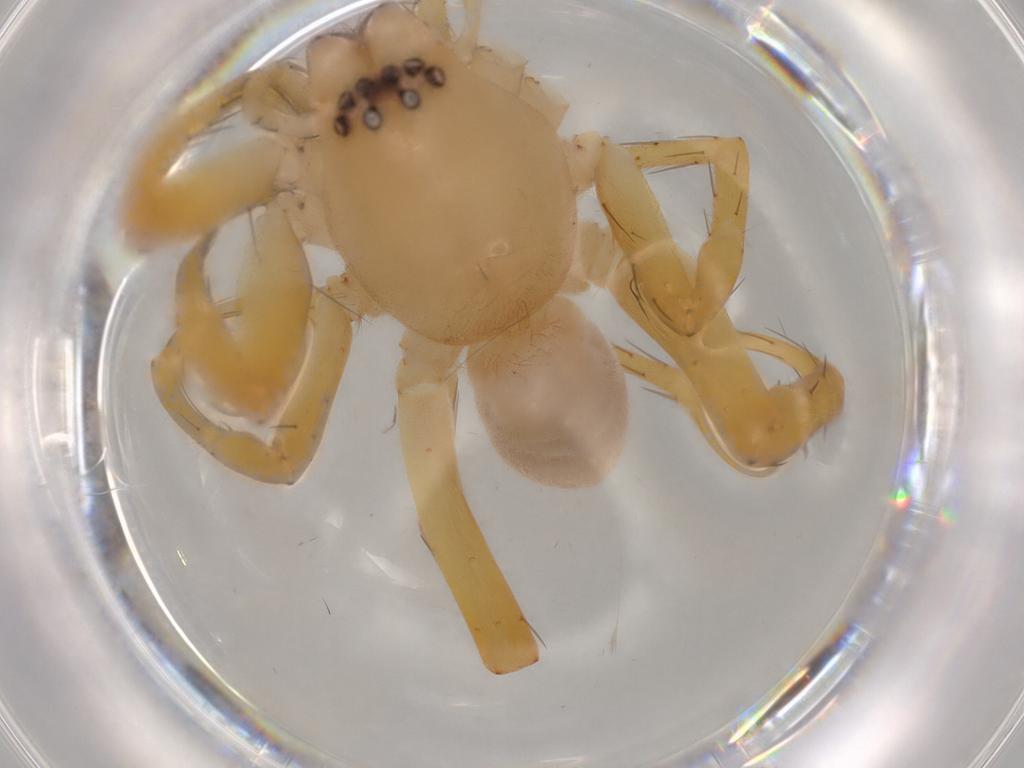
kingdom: Animalia
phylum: Arthropoda
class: Arachnida
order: Araneae
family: Clubionidae
